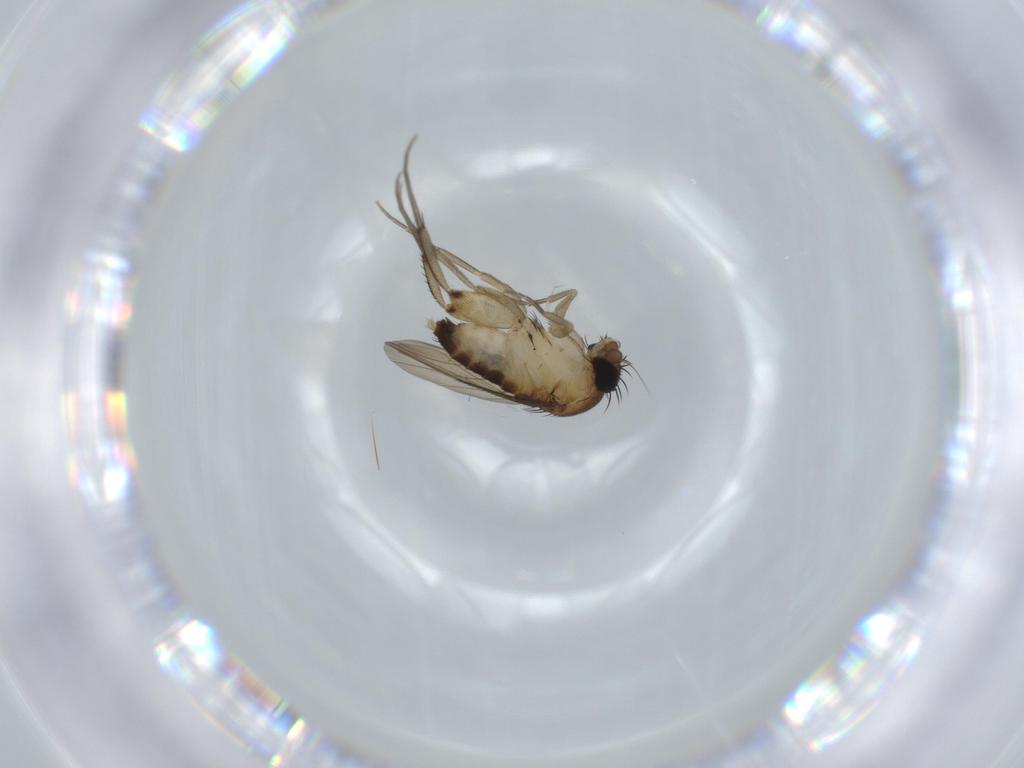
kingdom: Animalia
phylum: Arthropoda
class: Insecta
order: Diptera
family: Phoridae
